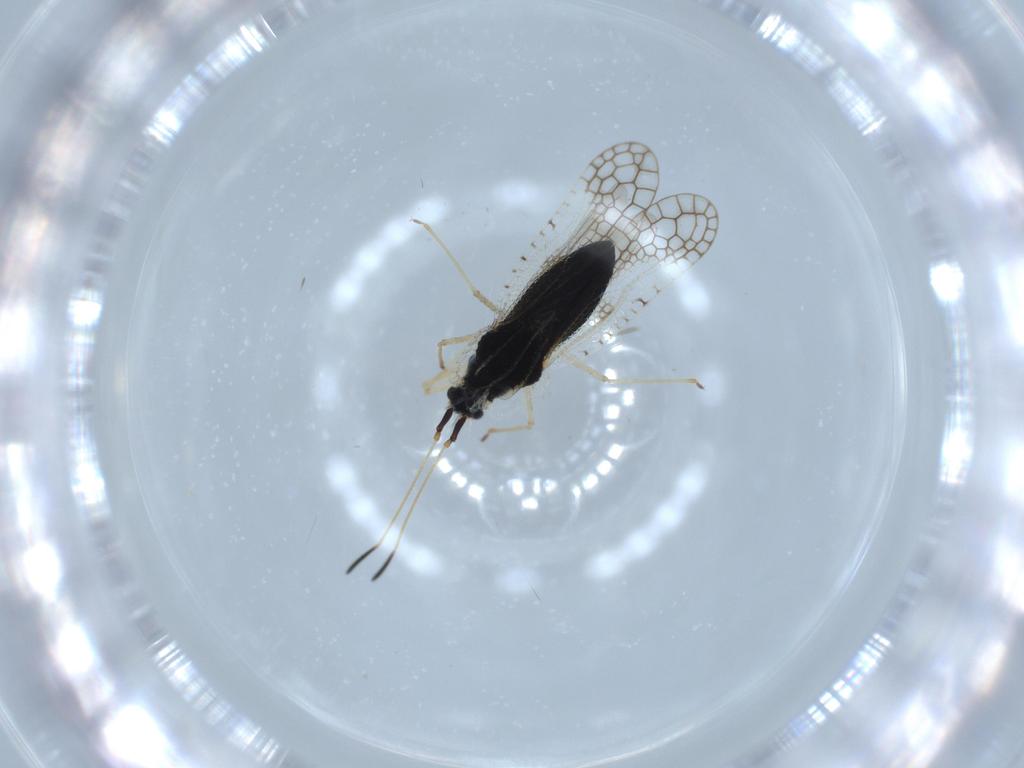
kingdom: Animalia
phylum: Arthropoda
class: Insecta
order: Hemiptera
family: Tingidae
